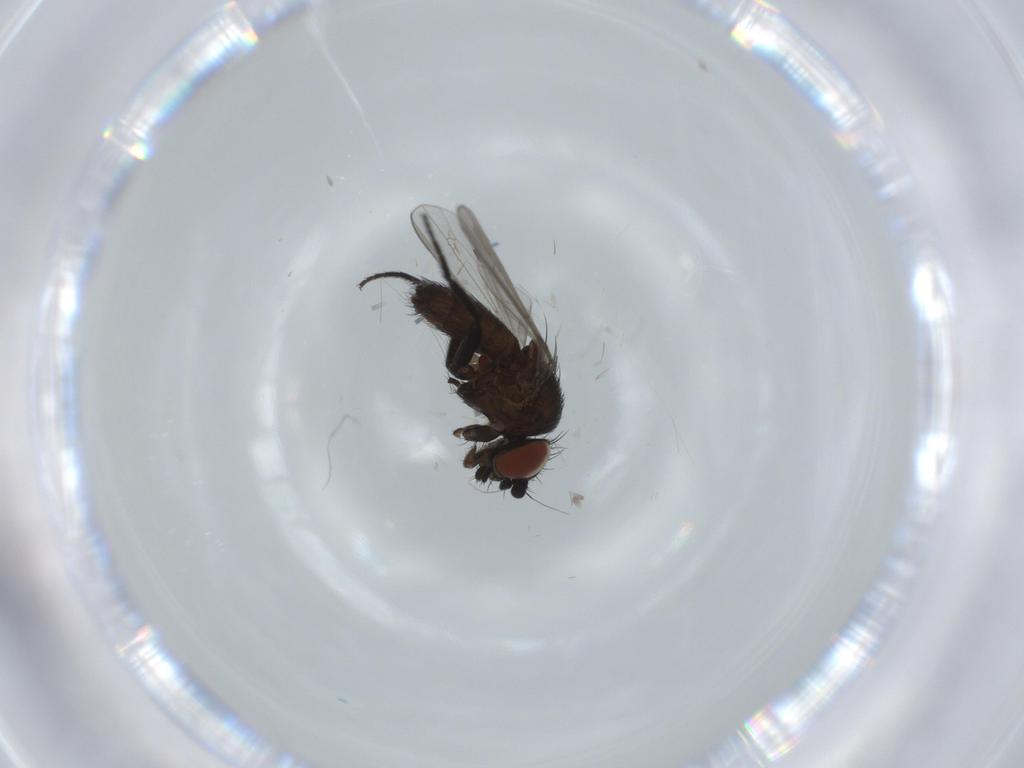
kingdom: Animalia
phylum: Arthropoda
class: Insecta
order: Diptera
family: Milichiidae
